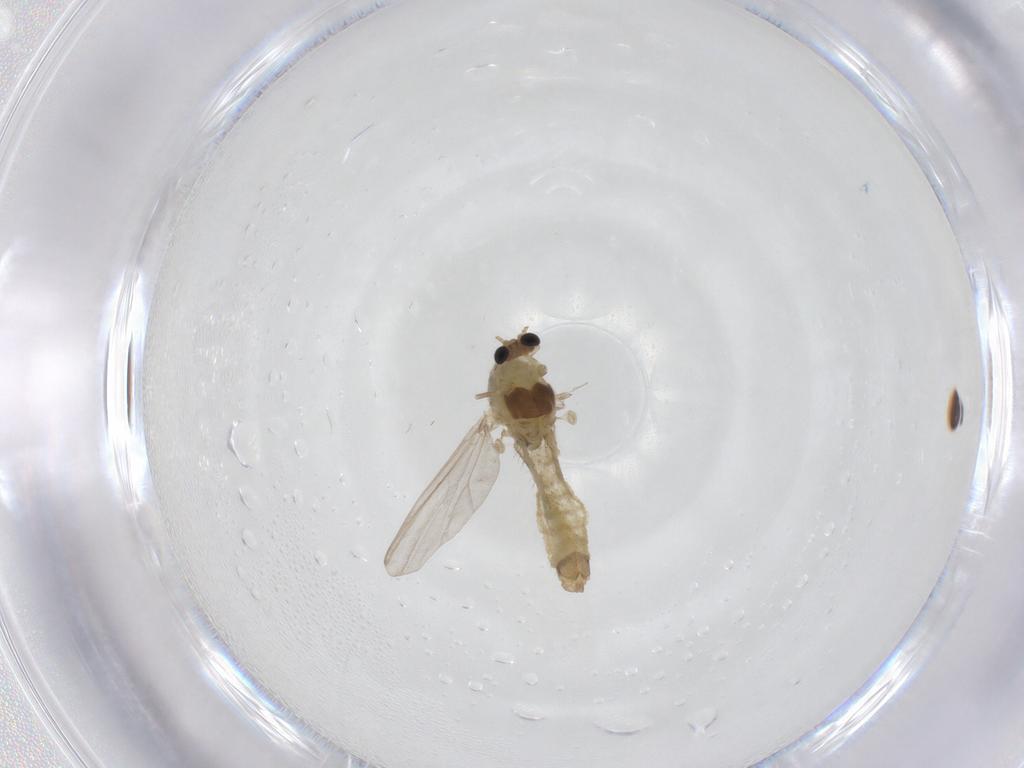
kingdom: Animalia
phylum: Arthropoda
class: Insecta
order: Diptera
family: Chironomidae
